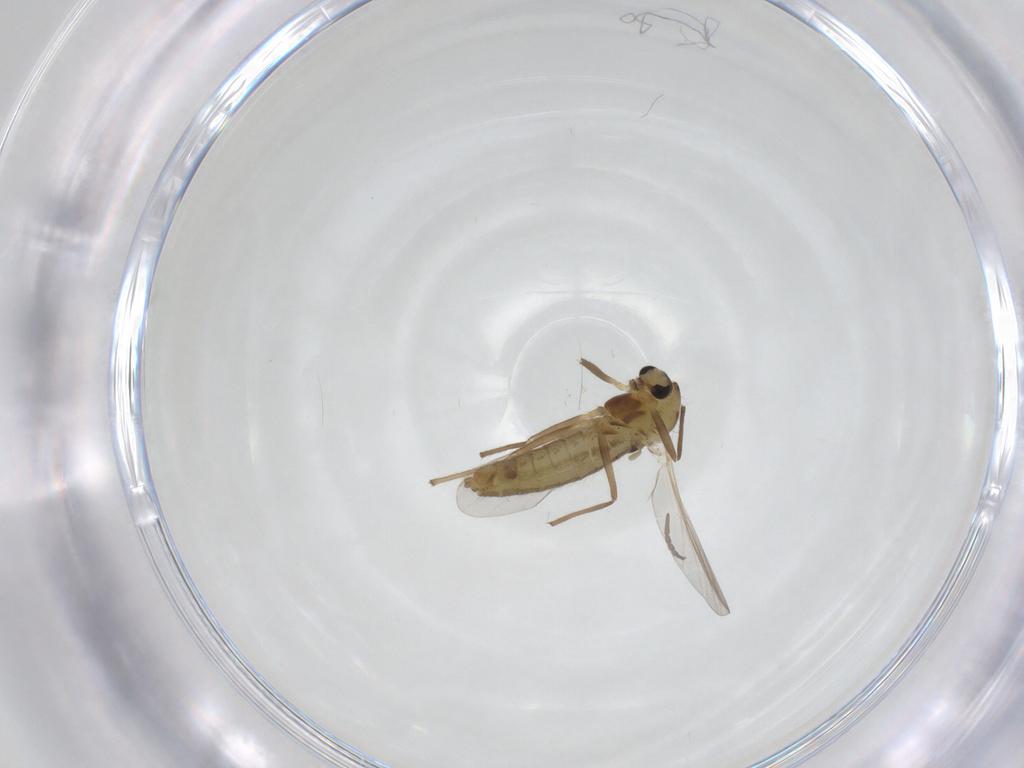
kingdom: Animalia
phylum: Arthropoda
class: Insecta
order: Diptera
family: Chironomidae
